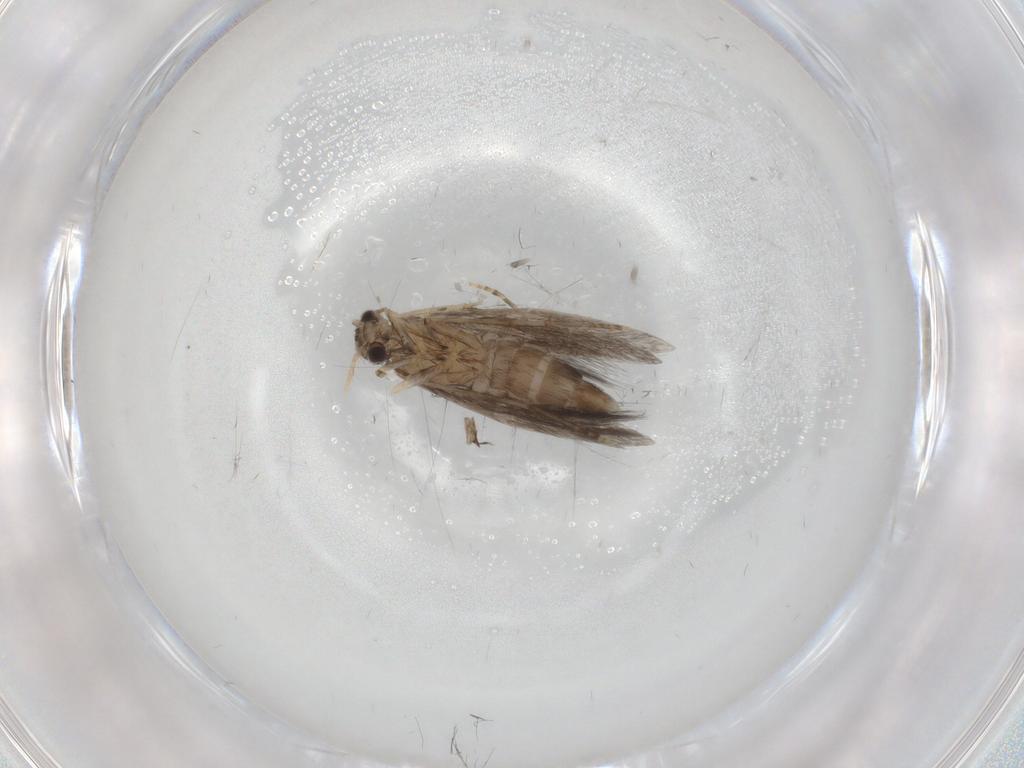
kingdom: Animalia
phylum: Arthropoda
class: Insecta
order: Trichoptera
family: Hydroptilidae
